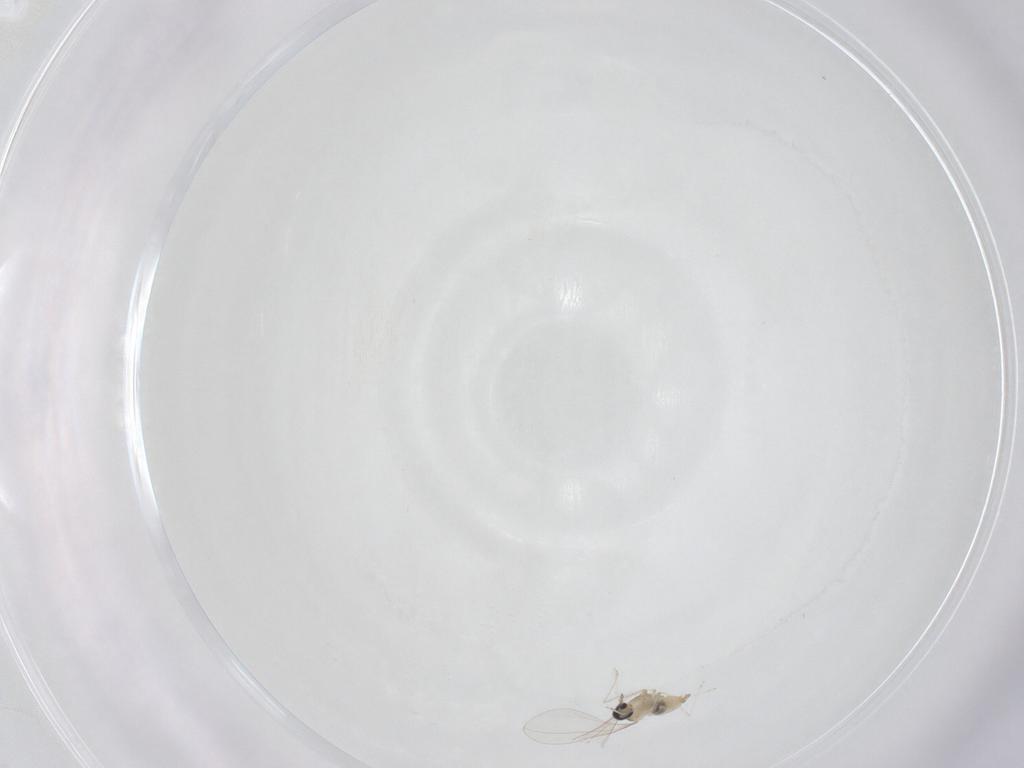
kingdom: Animalia
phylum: Arthropoda
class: Insecta
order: Diptera
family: Cecidomyiidae
